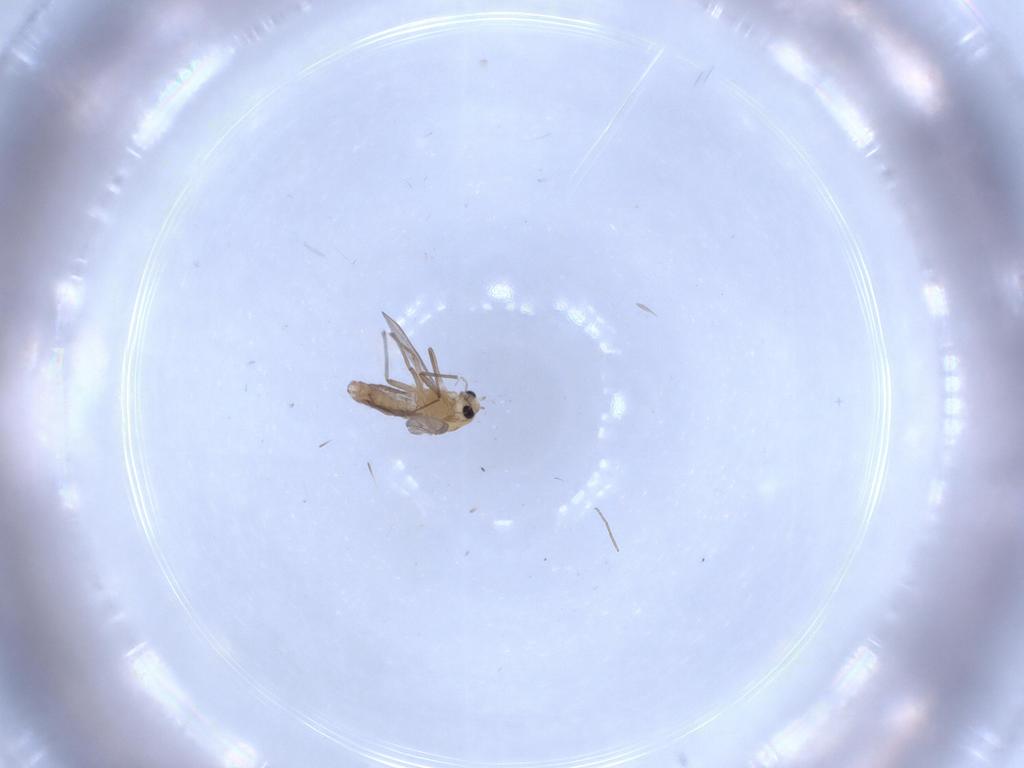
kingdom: Animalia
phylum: Arthropoda
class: Insecta
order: Diptera
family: Chironomidae
